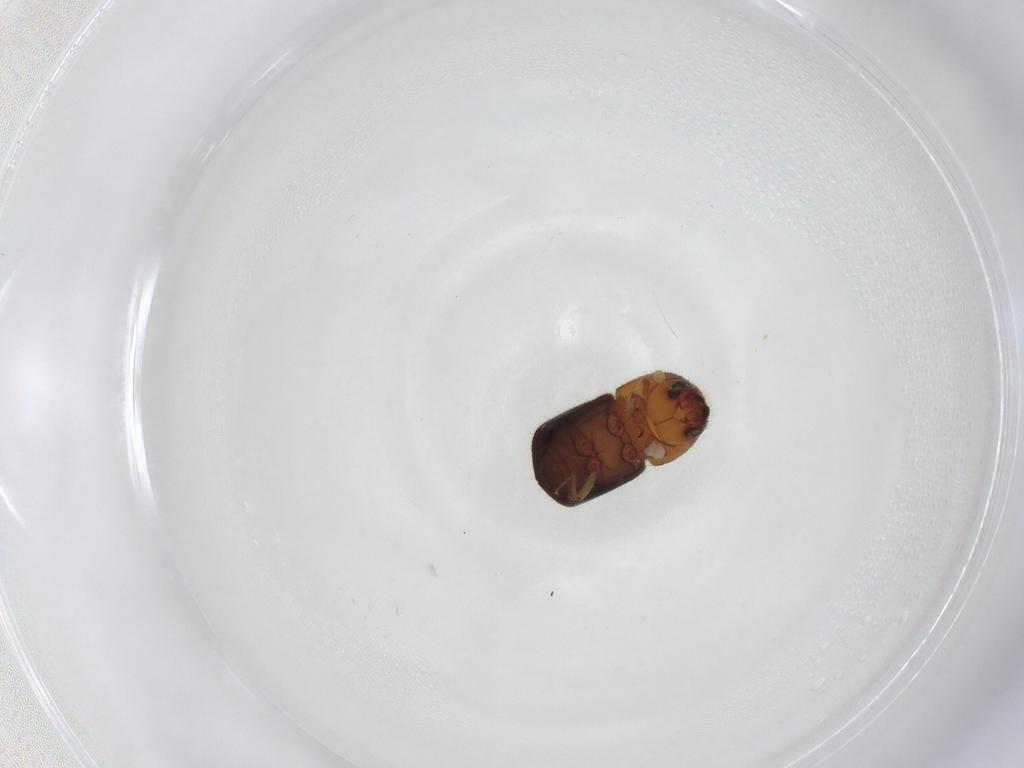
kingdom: Animalia
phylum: Arthropoda
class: Insecta
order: Coleoptera
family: Curculionidae
